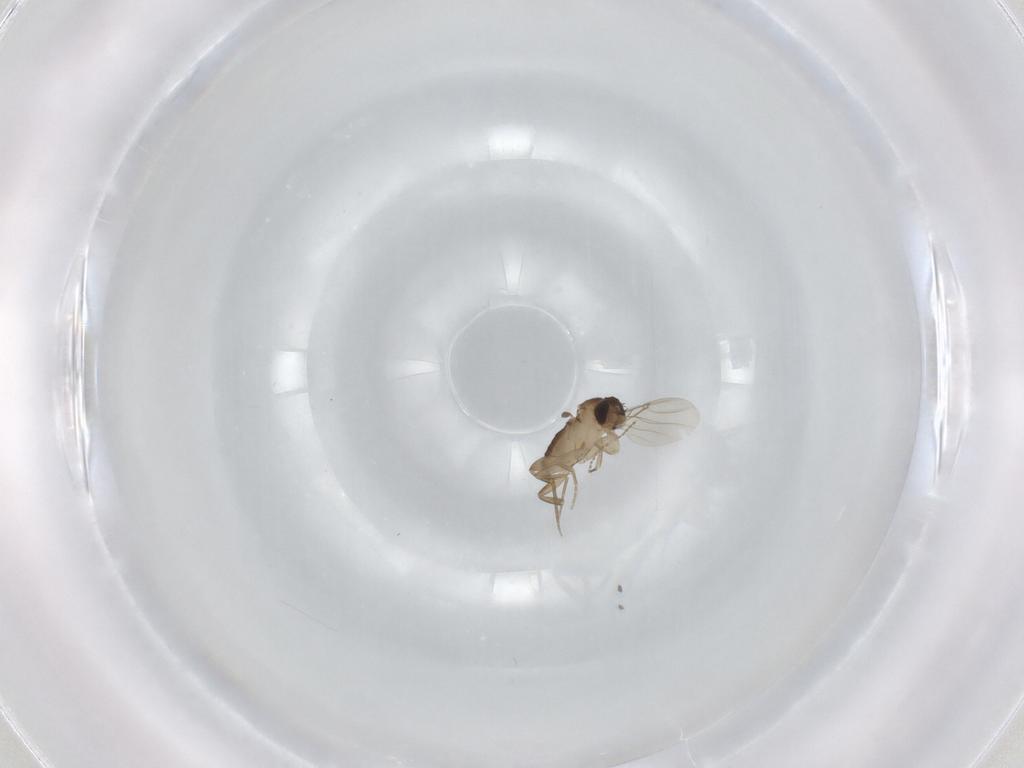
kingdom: Animalia
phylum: Arthropoda
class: Insecta
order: Diptera
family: Phoridae
